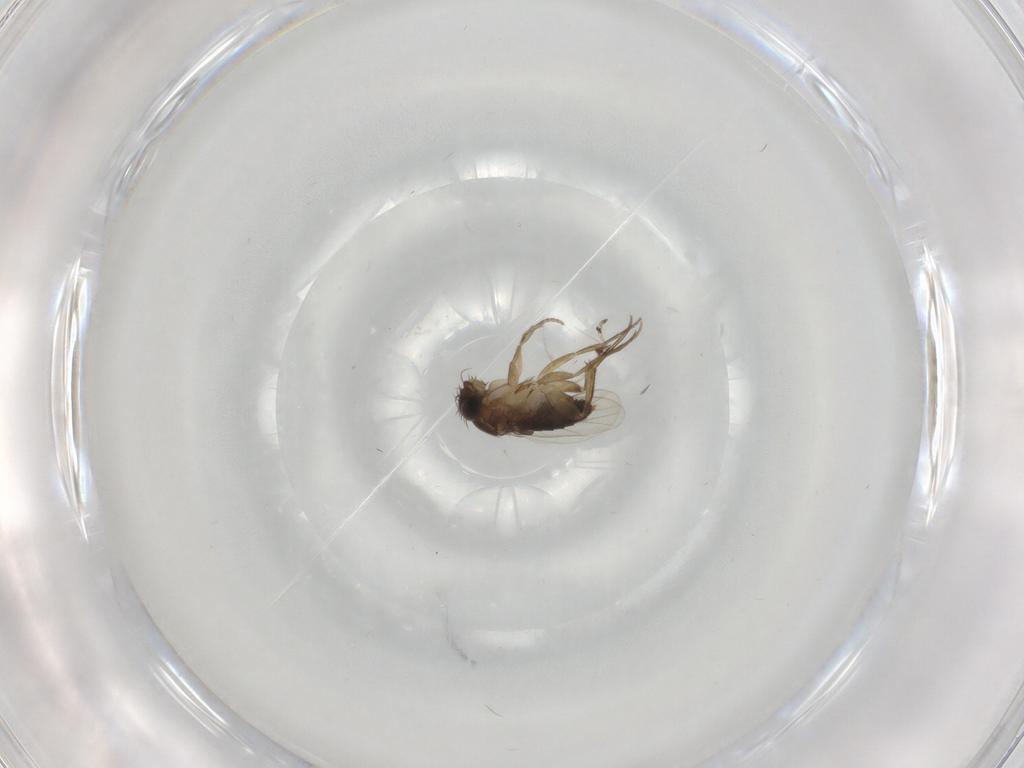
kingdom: Animalia
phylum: Arthropoda
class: Insecta
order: Diptera
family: Phoridae
